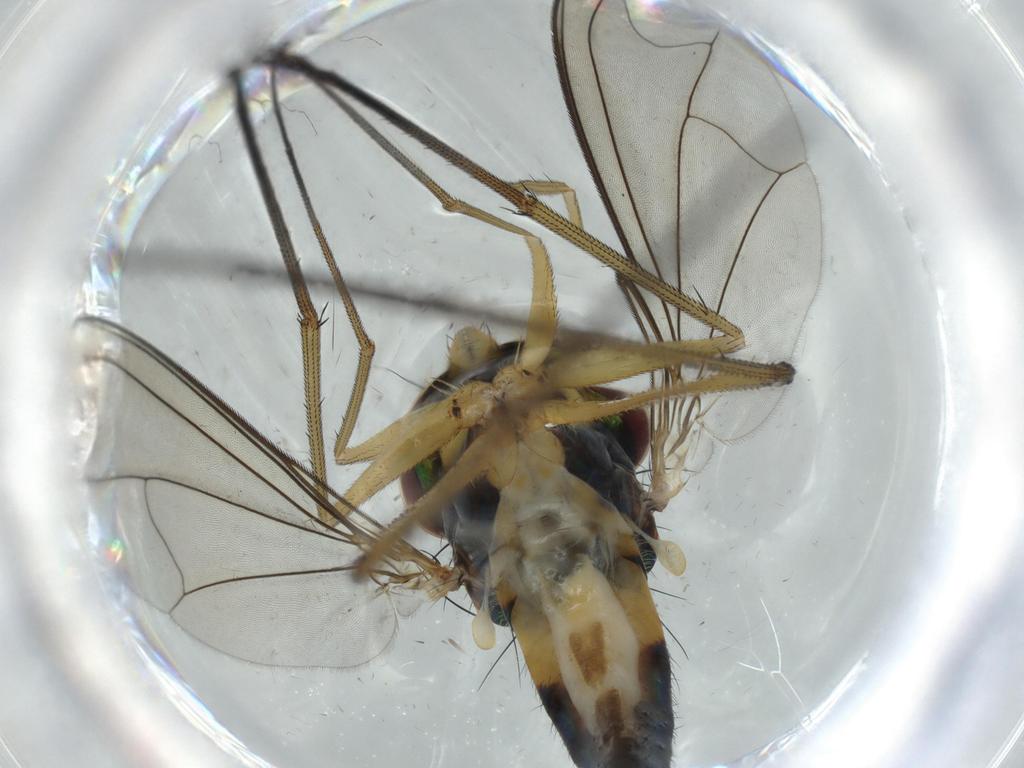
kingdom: Animalia
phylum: Arthropoda
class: Insecta
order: Diptera
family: Dolichopodidae
